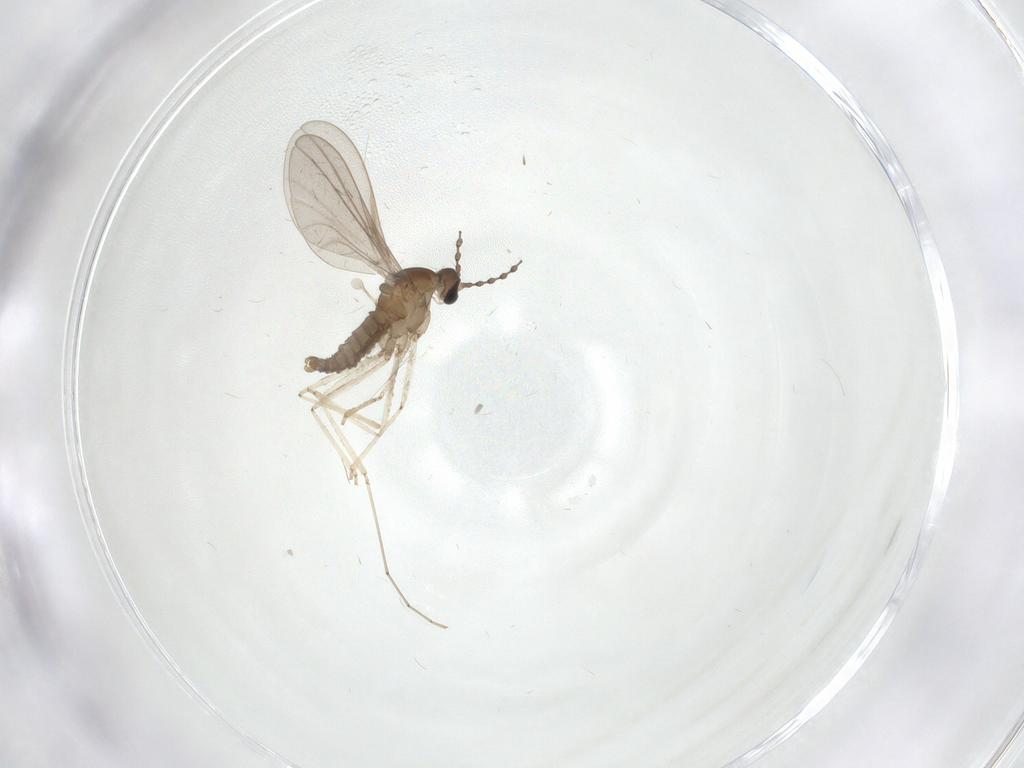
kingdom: Animalia
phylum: Arthropoda
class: Insecta
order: Diptera
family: Cecidomyiidae
